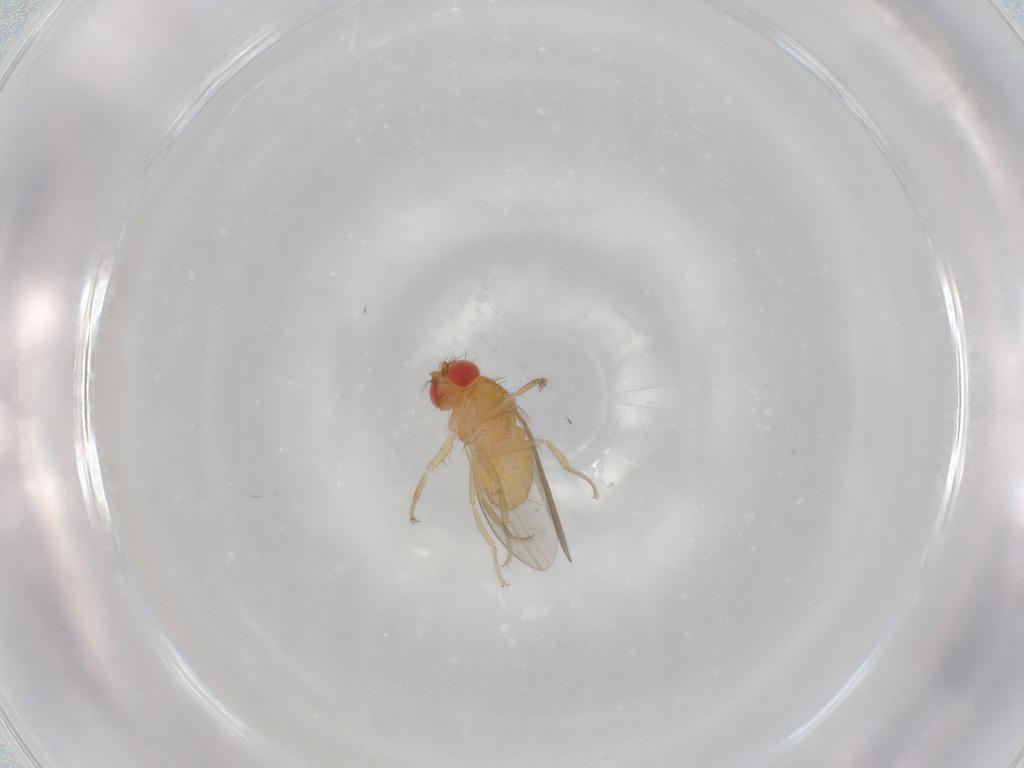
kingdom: Animalia
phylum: Arthropoda
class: Insecta
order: Diptera
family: Drosophilidae
